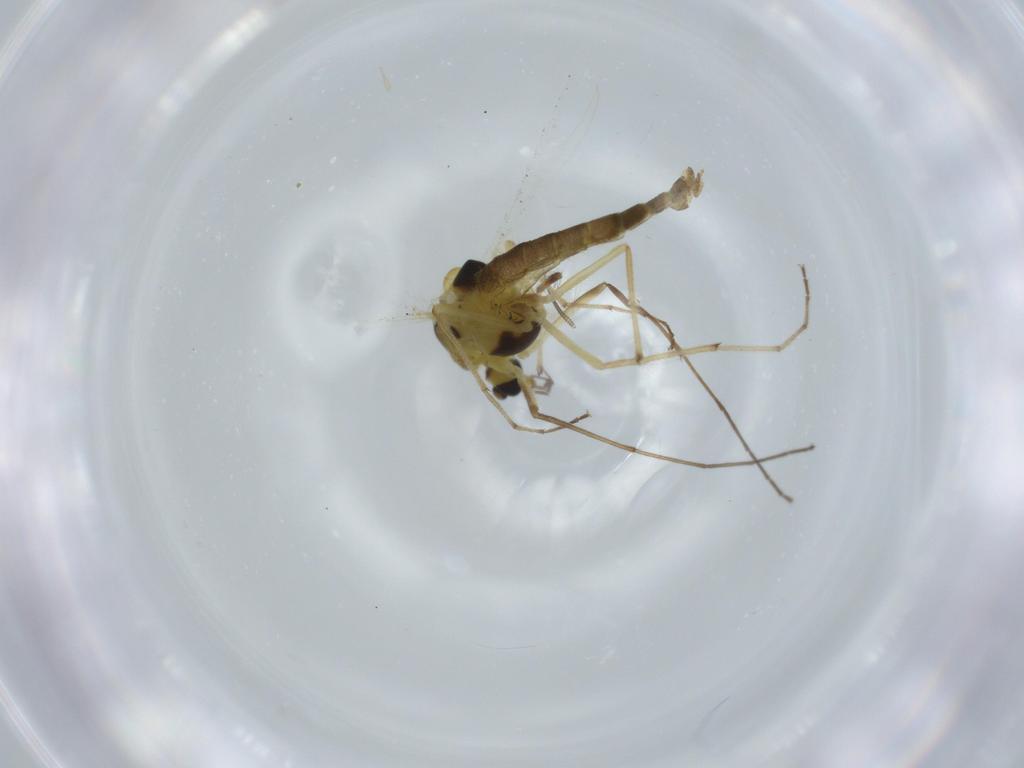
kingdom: Animalia
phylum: Arthropoda
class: Insecta
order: Diptera
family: Chironomidae
